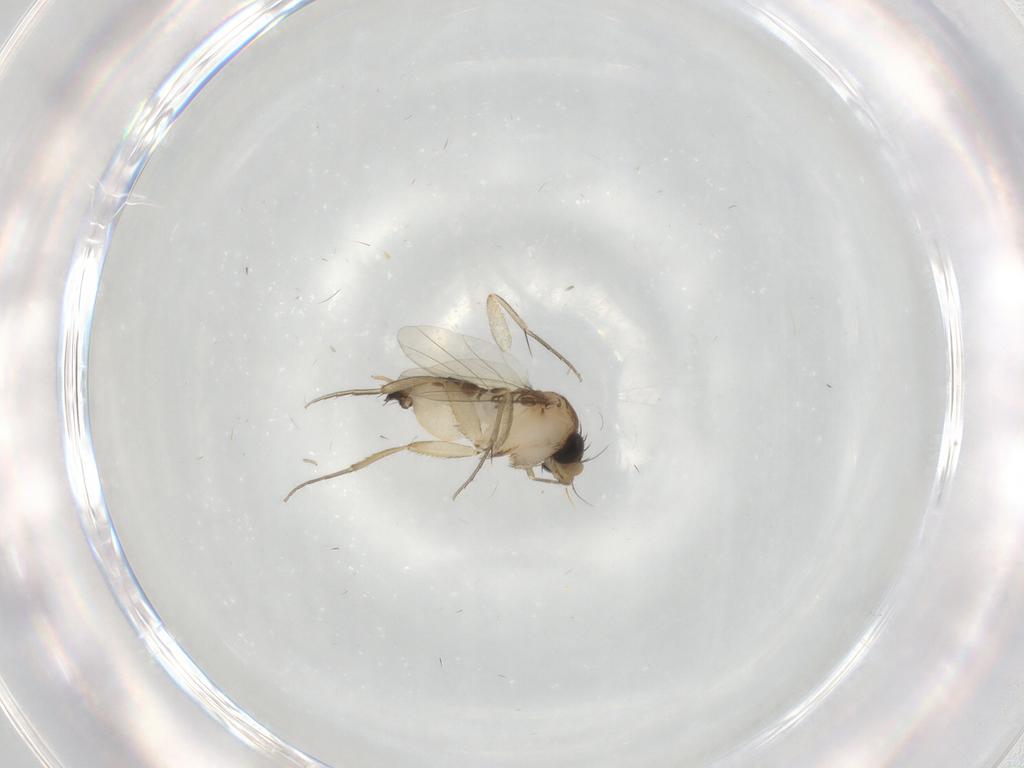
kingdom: Animalia
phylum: Arthropoda
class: Insecta
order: Diptera
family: Phoridae
